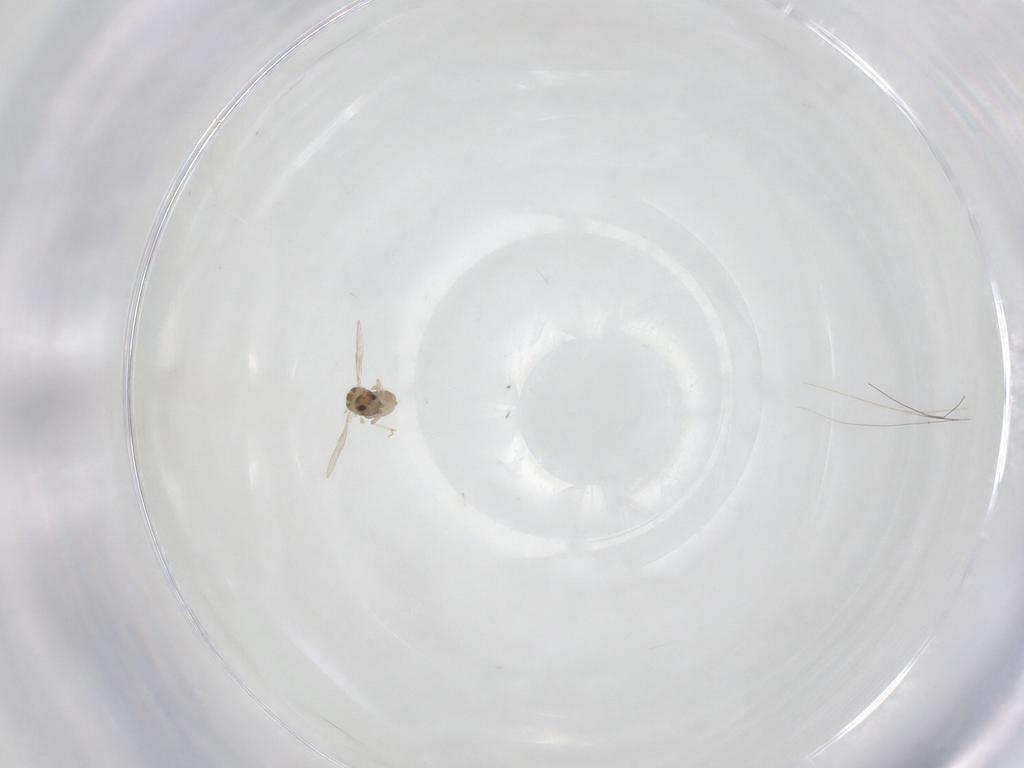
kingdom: Animalia
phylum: Arthropoda
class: Insecta
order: Diptera
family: Chironomidae
